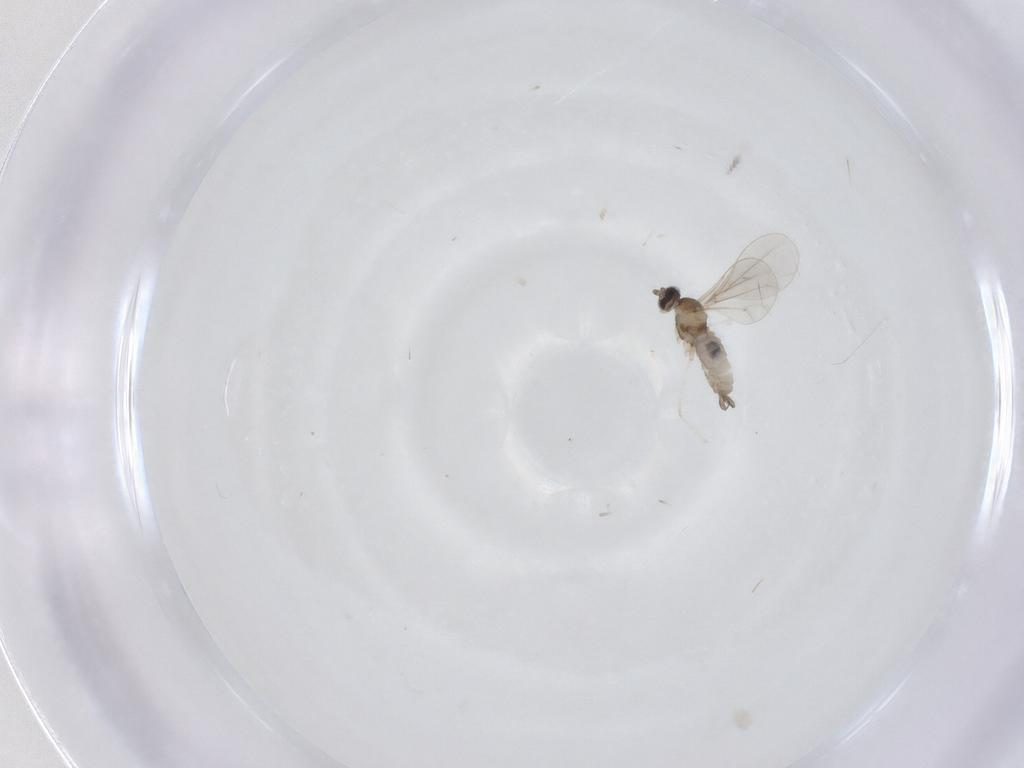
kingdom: Animalia
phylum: Arthropoda
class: Insecta
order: Diptera
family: Chironomidae
